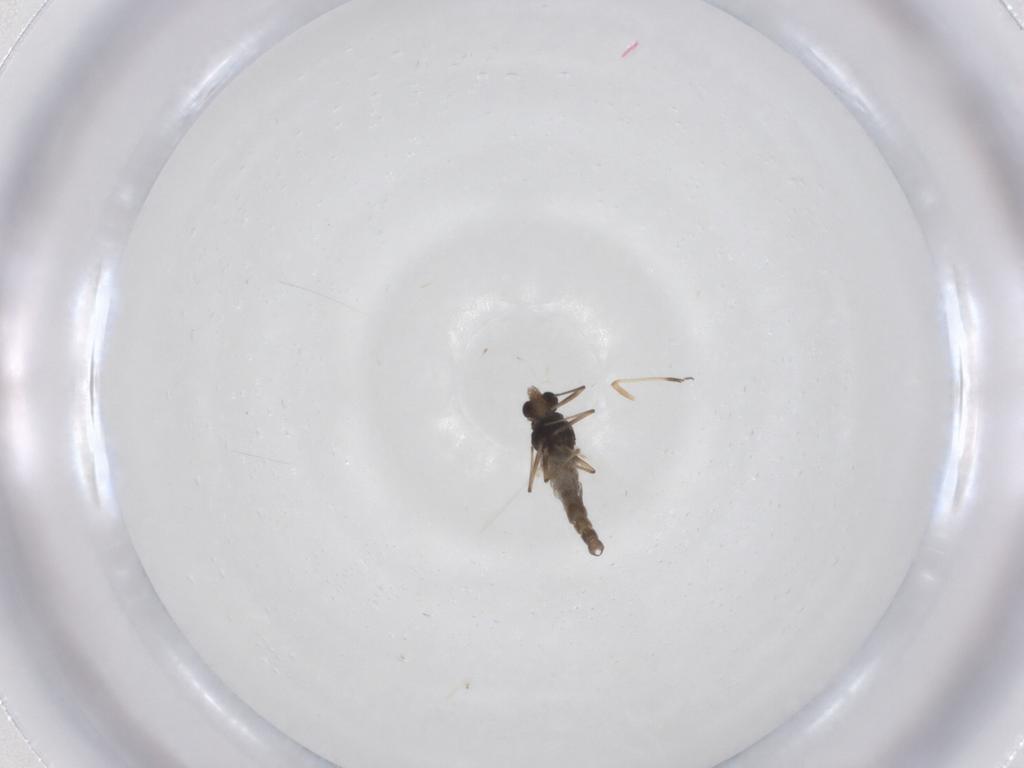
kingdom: Animalia
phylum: Arthropoda
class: Insecta
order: Diptera
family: Chironomidae
